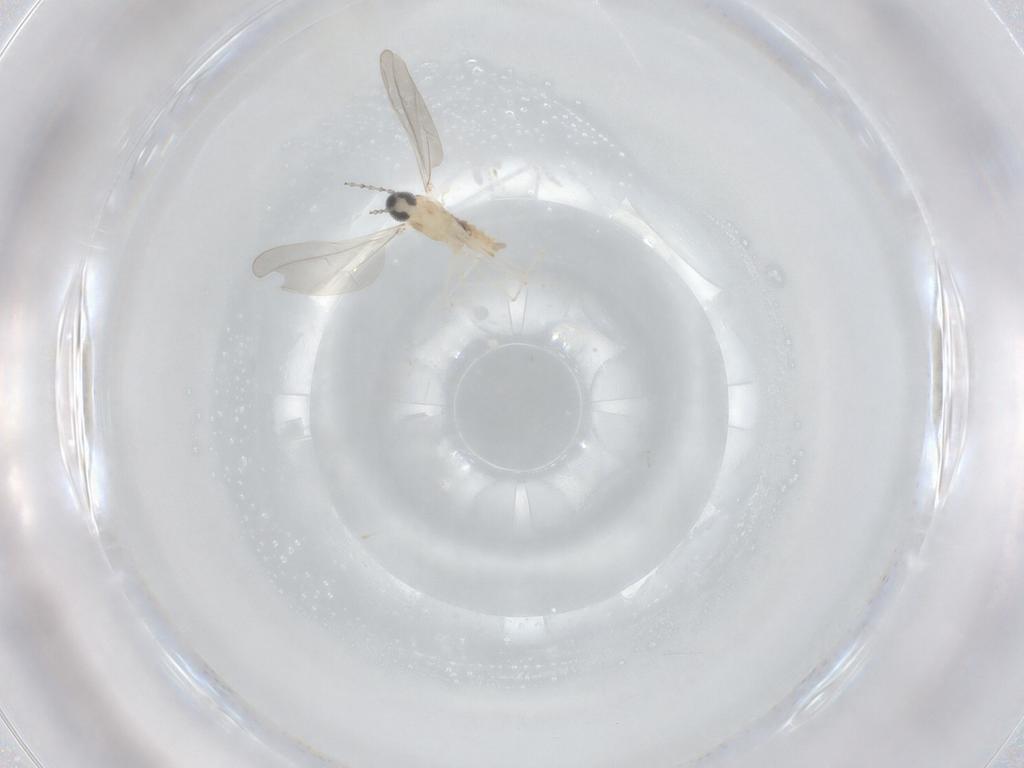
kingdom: Animalia
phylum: Arthropoda
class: Insecta
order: Diptera
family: Cecidomyiidae
